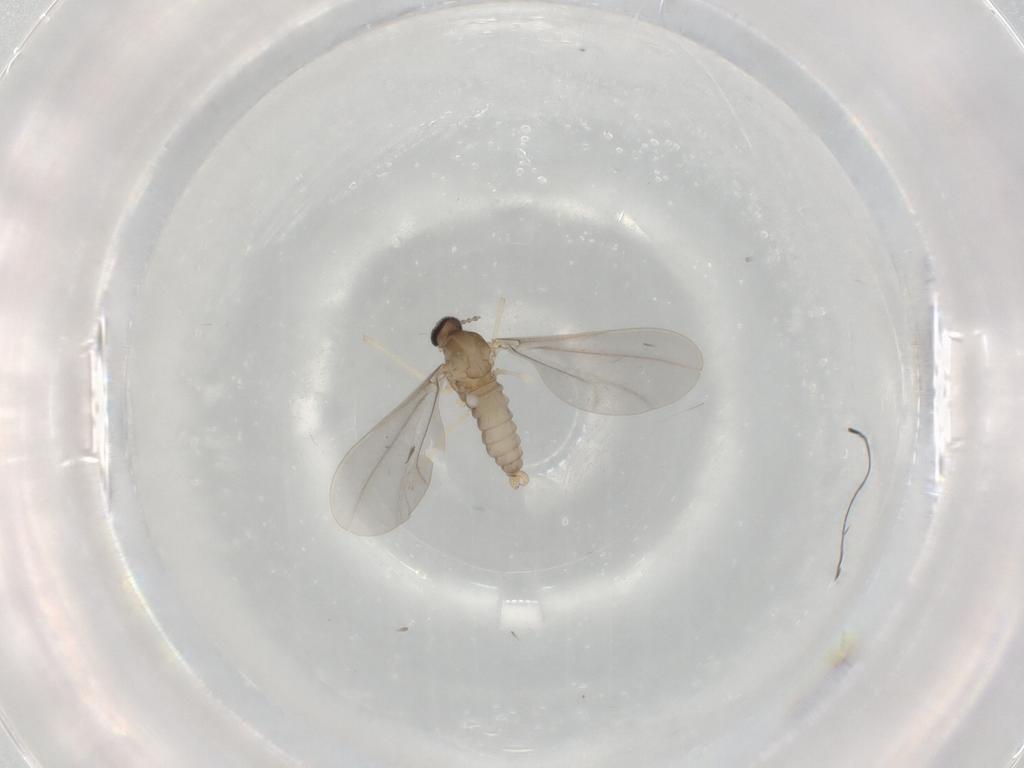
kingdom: Animalia
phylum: Arthropoda
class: Insecta
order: Diptera
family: Cecidomyiidae
